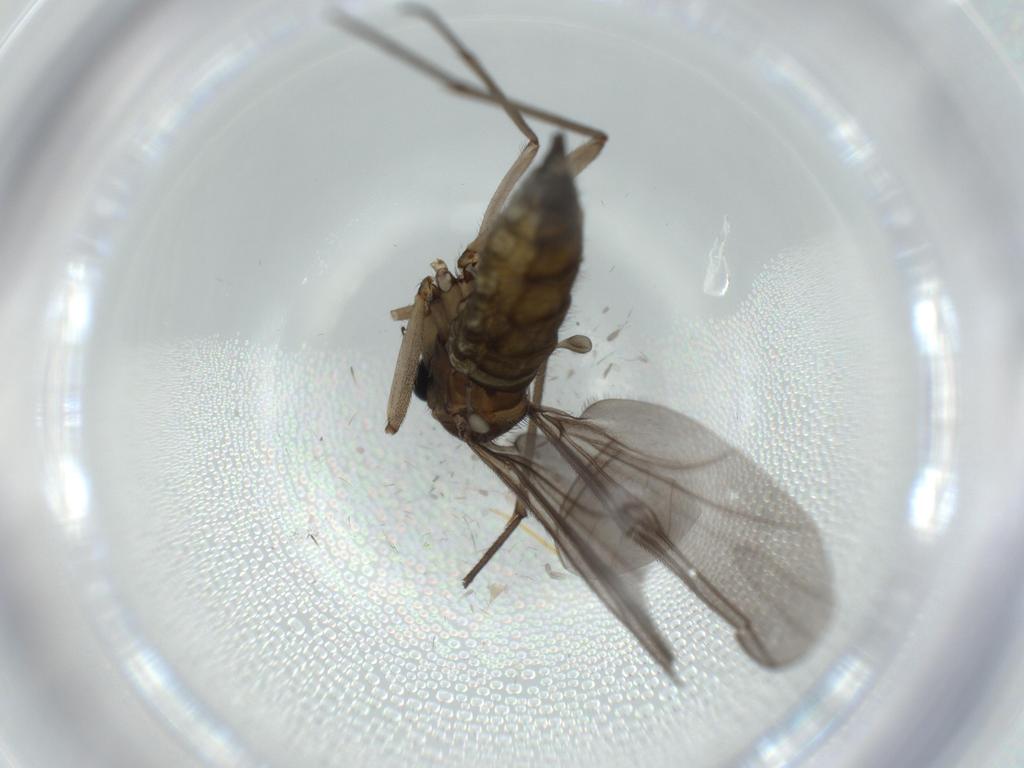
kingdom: Animalia
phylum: Arthropoda
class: Insecta
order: Diptera
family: Sciaridae
